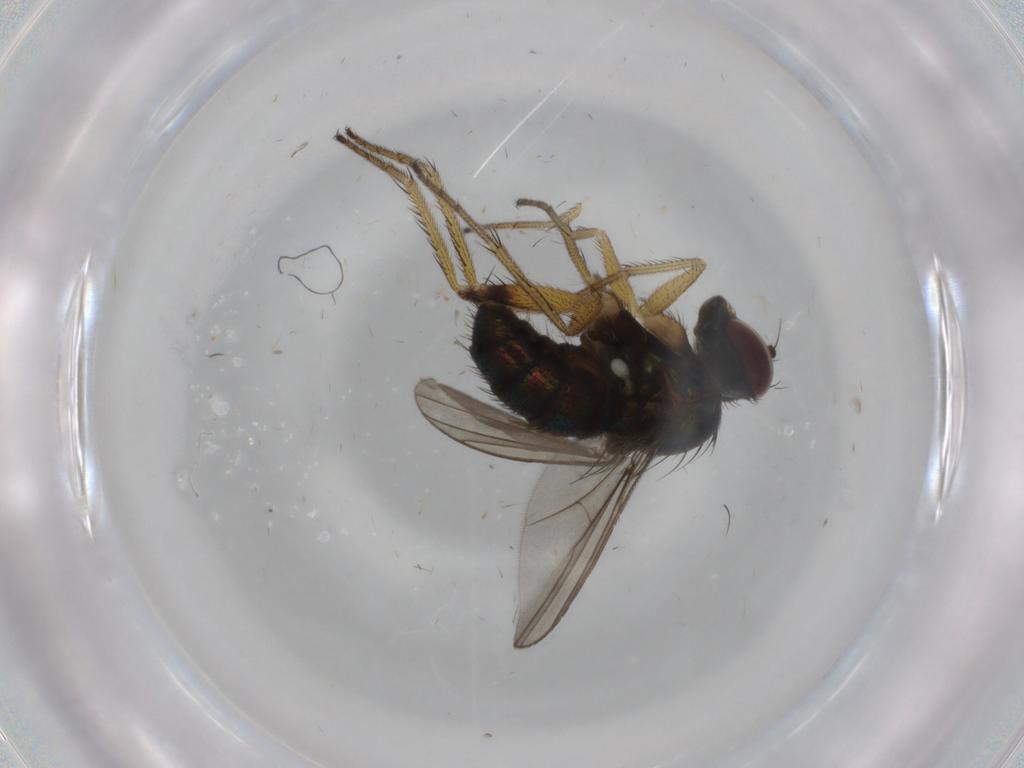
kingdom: Animalia
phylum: Arthropoda
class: Insecta
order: Diptera
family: Dolichopodidae
